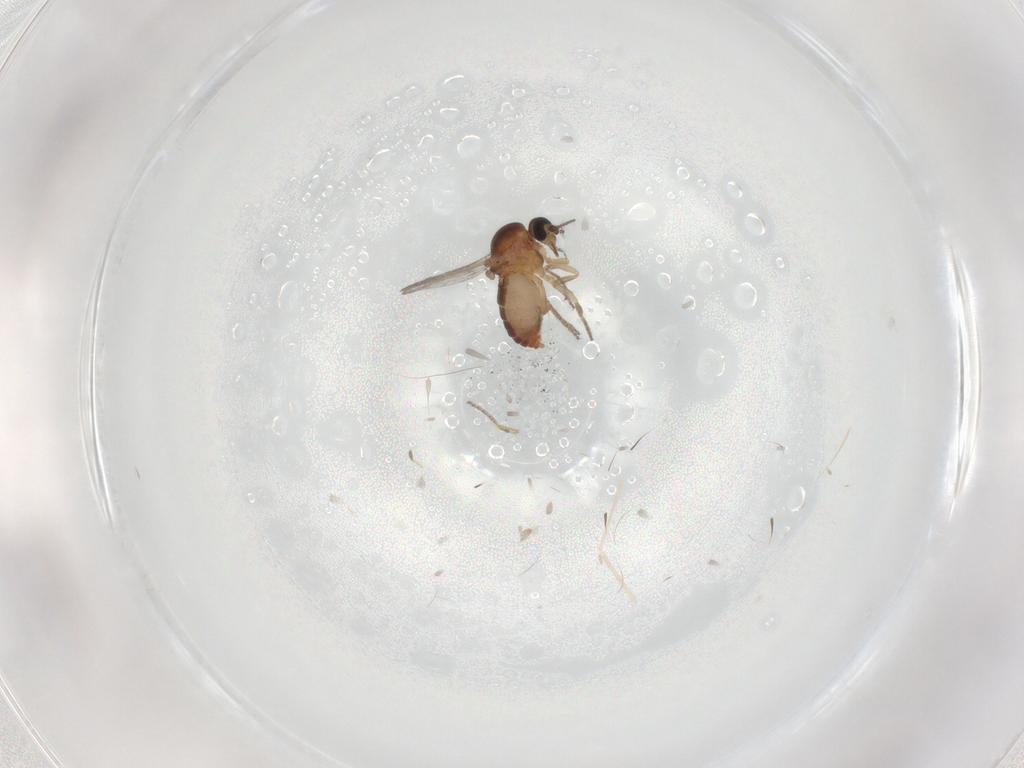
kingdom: Animalia
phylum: Arthropoda
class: Insecta
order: Diptera
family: Ceratopogonidae
